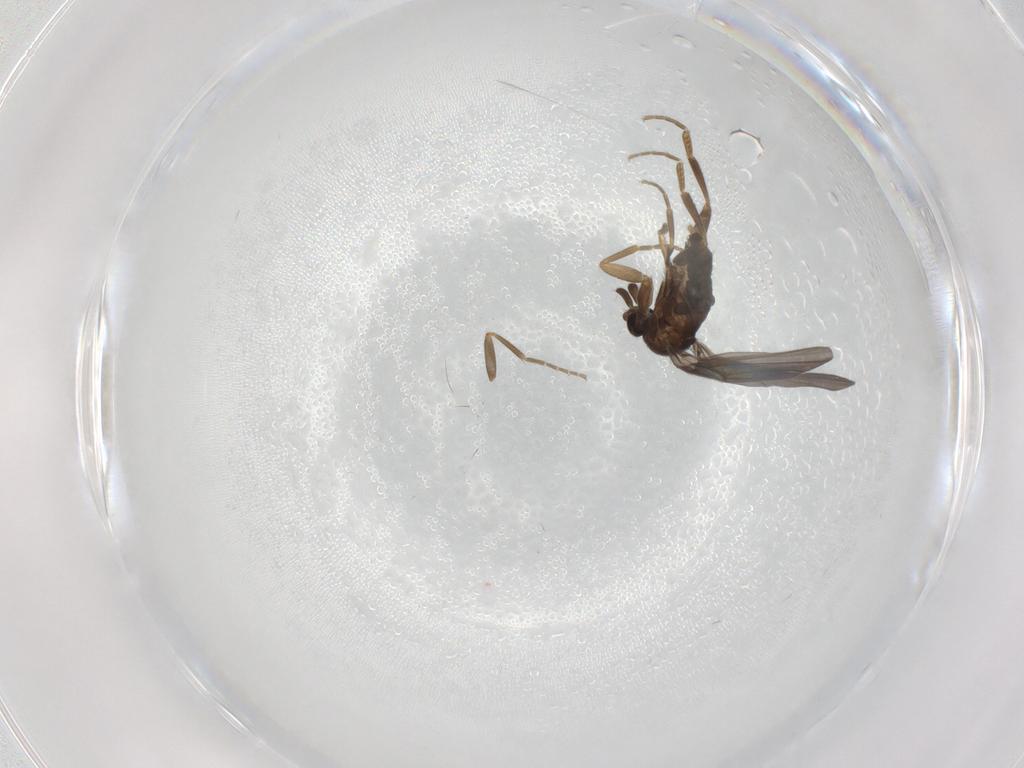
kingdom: Animalia
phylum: Arthropoda
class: Insecta
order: Diptera
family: Phoridae
